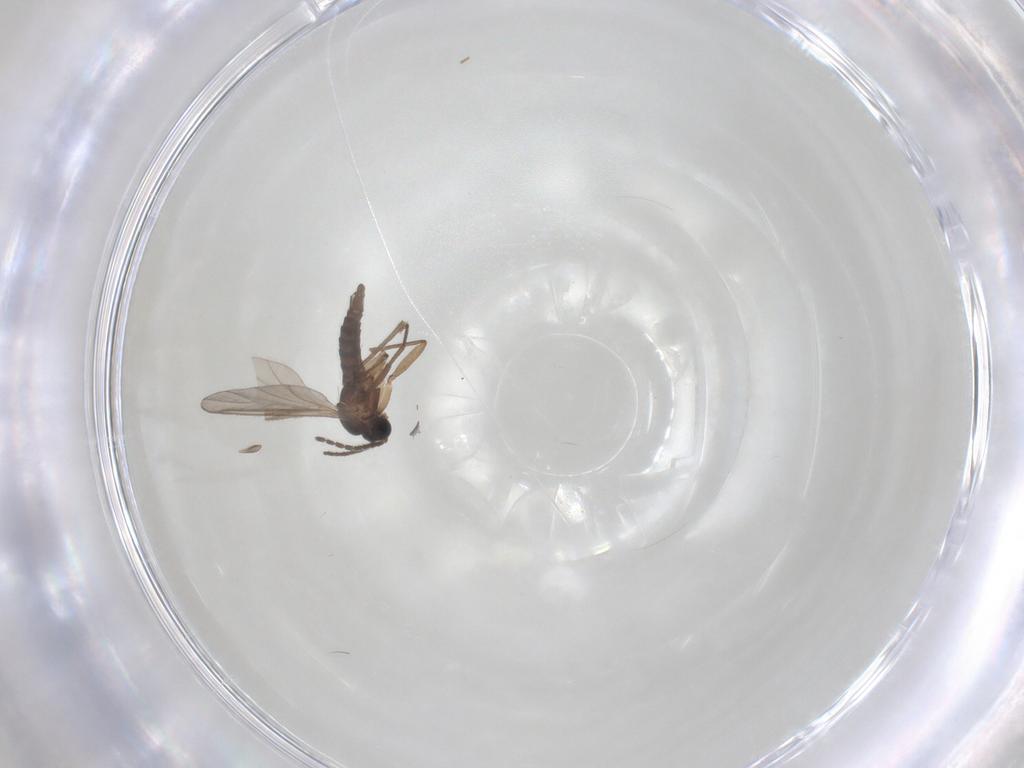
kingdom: Animalia
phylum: Arthropoda
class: Insecta
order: Diptera
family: Sciaridae
